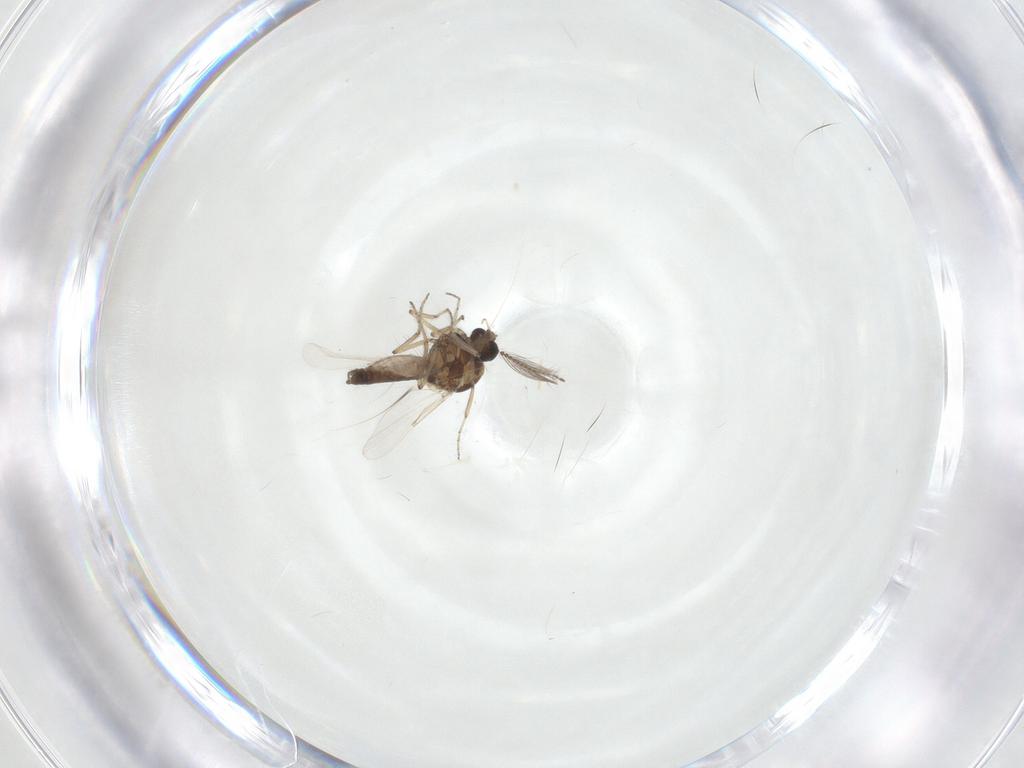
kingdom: Animalia
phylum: Arthropoda
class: Insecta
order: Diptera
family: Ceratopogonidae
